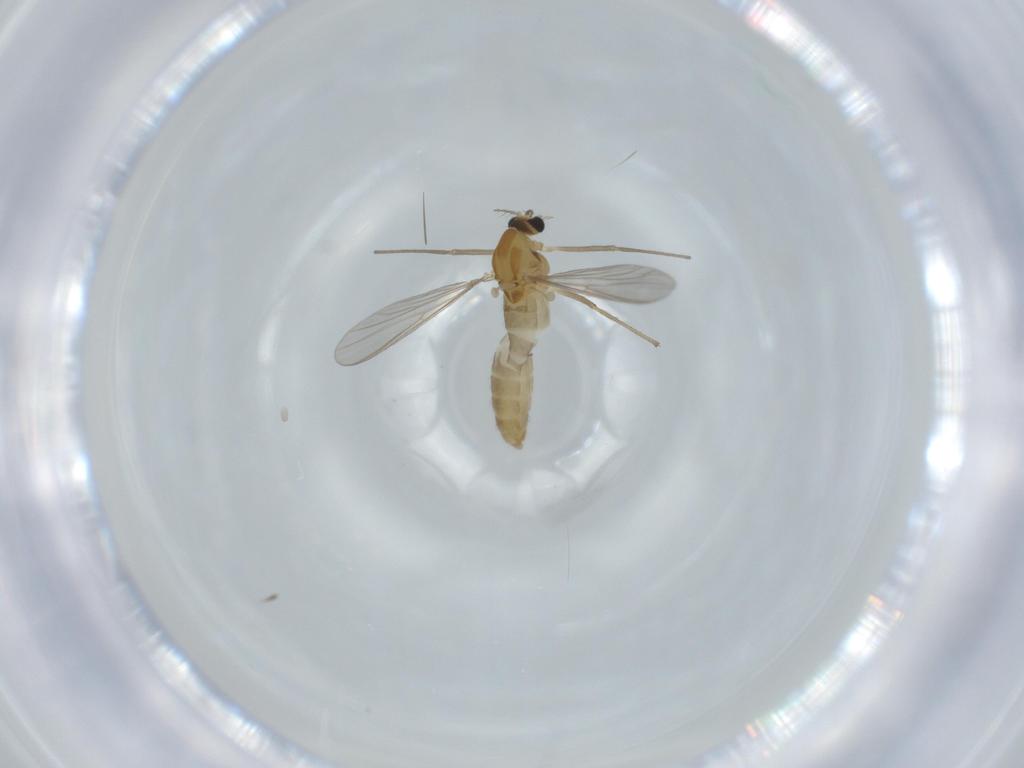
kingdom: Animalia
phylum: Arthropoda
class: Insecta
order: Diptera
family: Chironomidae
